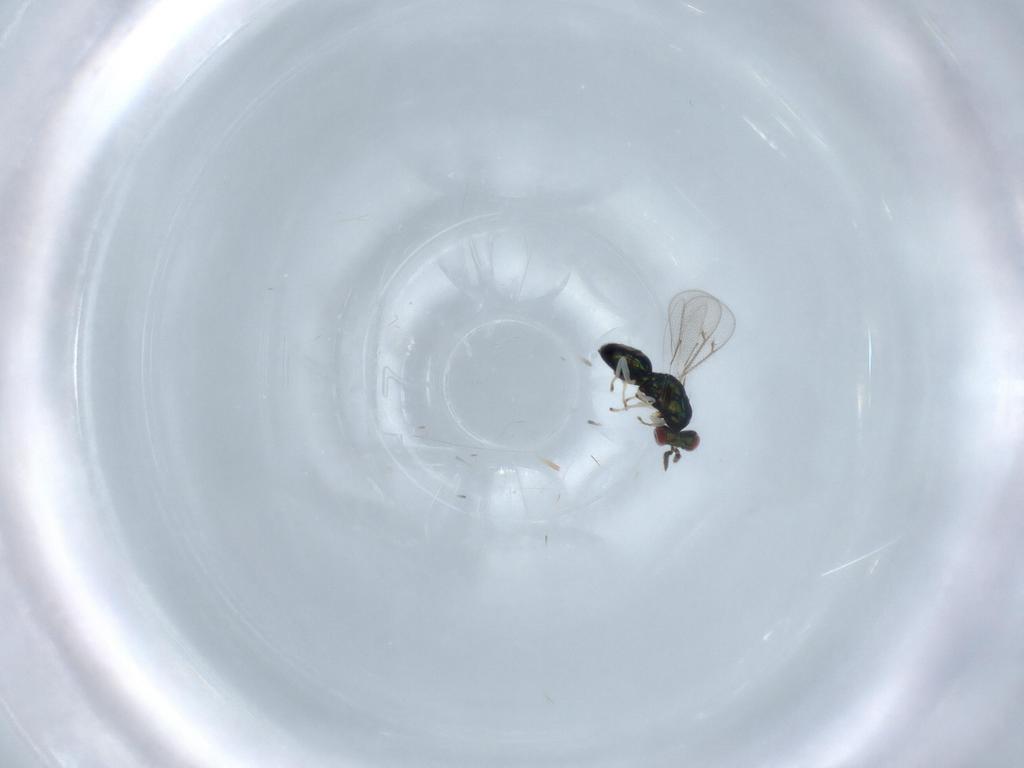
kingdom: Animalia
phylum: Arthropoda
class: Insecta
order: Hymenoptera
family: Eulophidae
